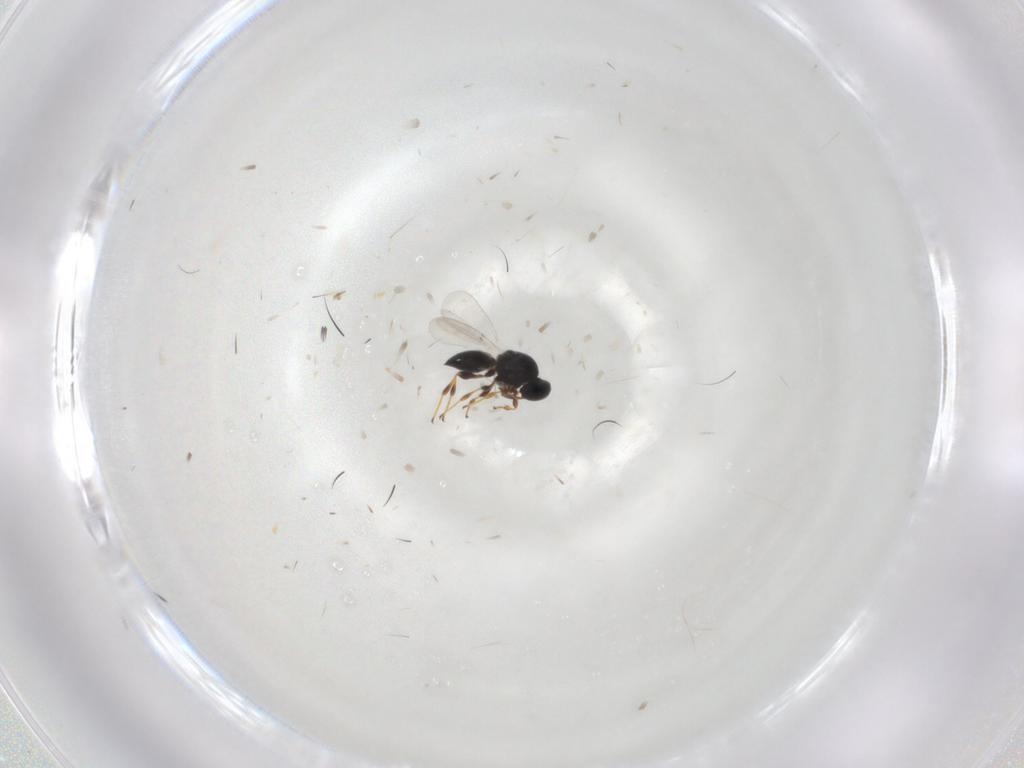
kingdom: Animalia
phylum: Arthropoda
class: Insecta
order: Hymenoptera
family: Platygastridae
